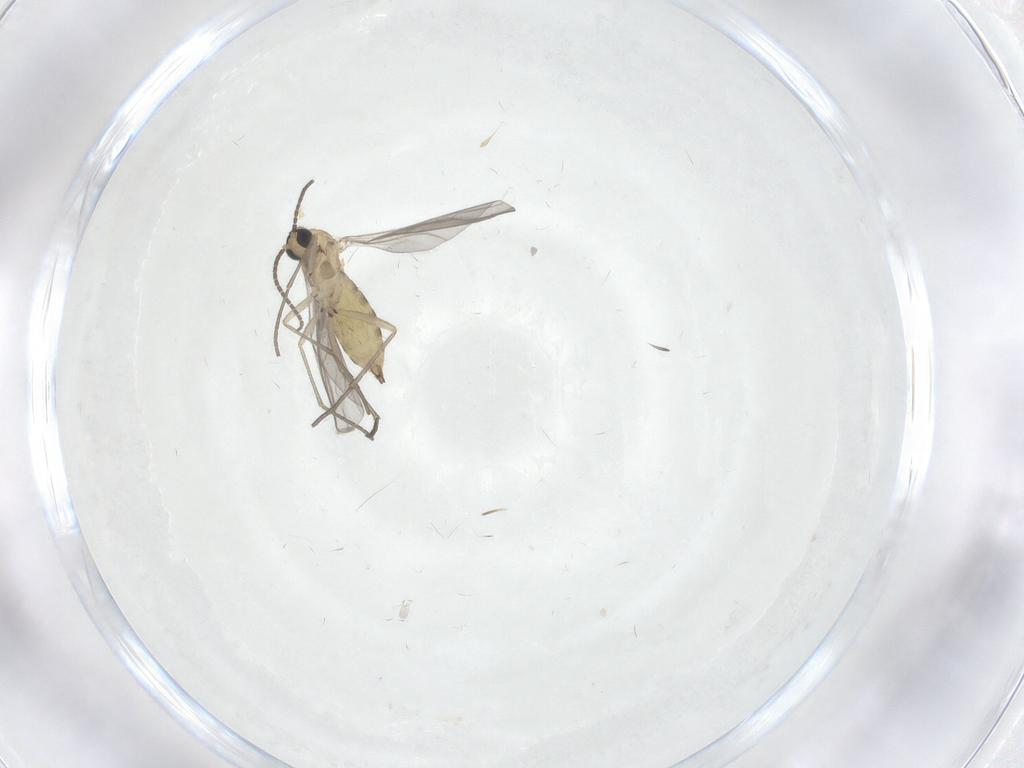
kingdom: Animalia
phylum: Arthropoda
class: Insecta
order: Diptera
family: Sciaridae
